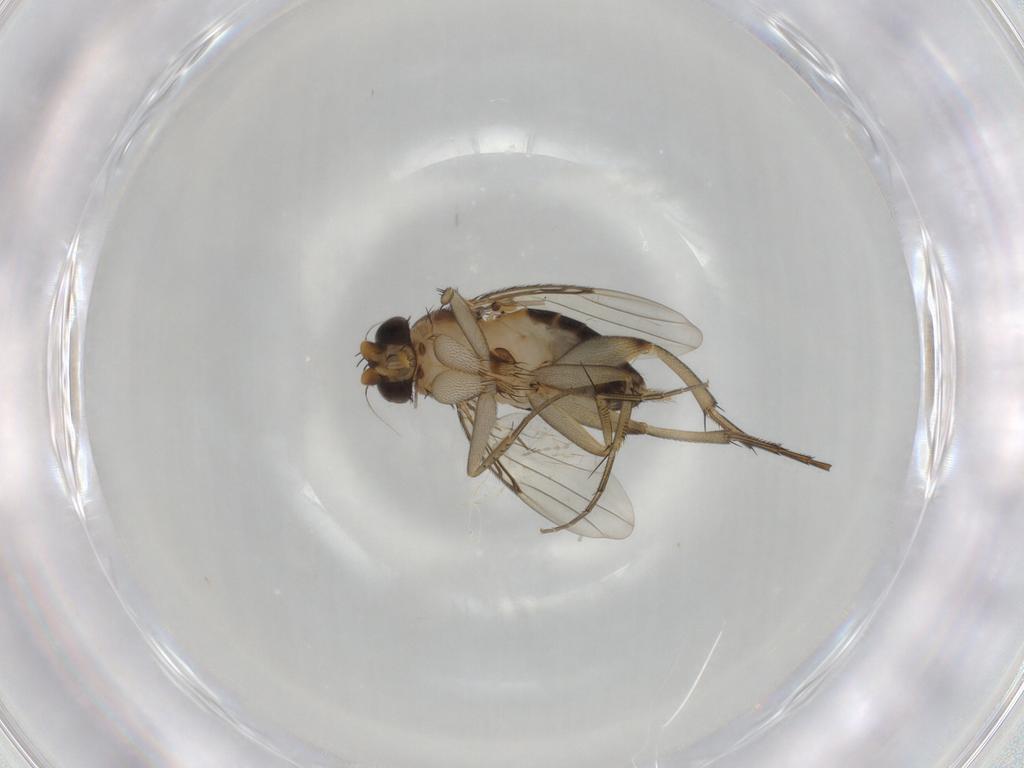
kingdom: Animalia
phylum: Arthropoda
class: Insecta
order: Diptera
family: Phoridae
